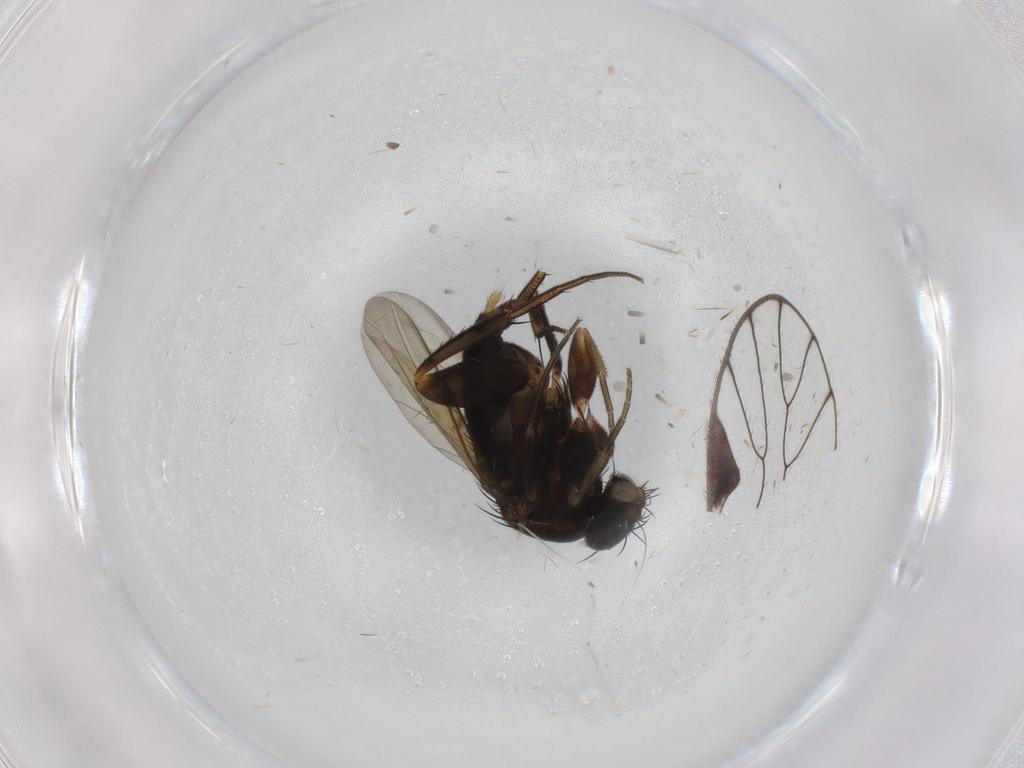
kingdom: Animalia
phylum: Arthropoda
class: Insecta
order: Diptera
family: Phoridae
